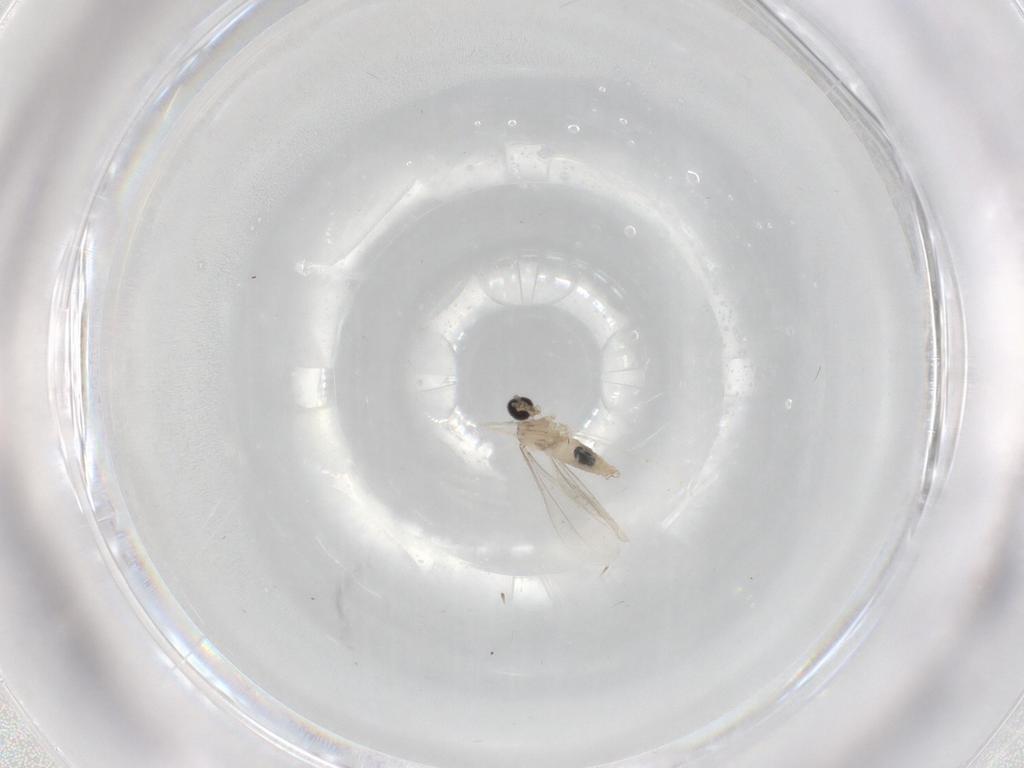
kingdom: Animalia
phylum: Arthropoda
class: Insecta
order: Diptera
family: Cecidomyiidae
